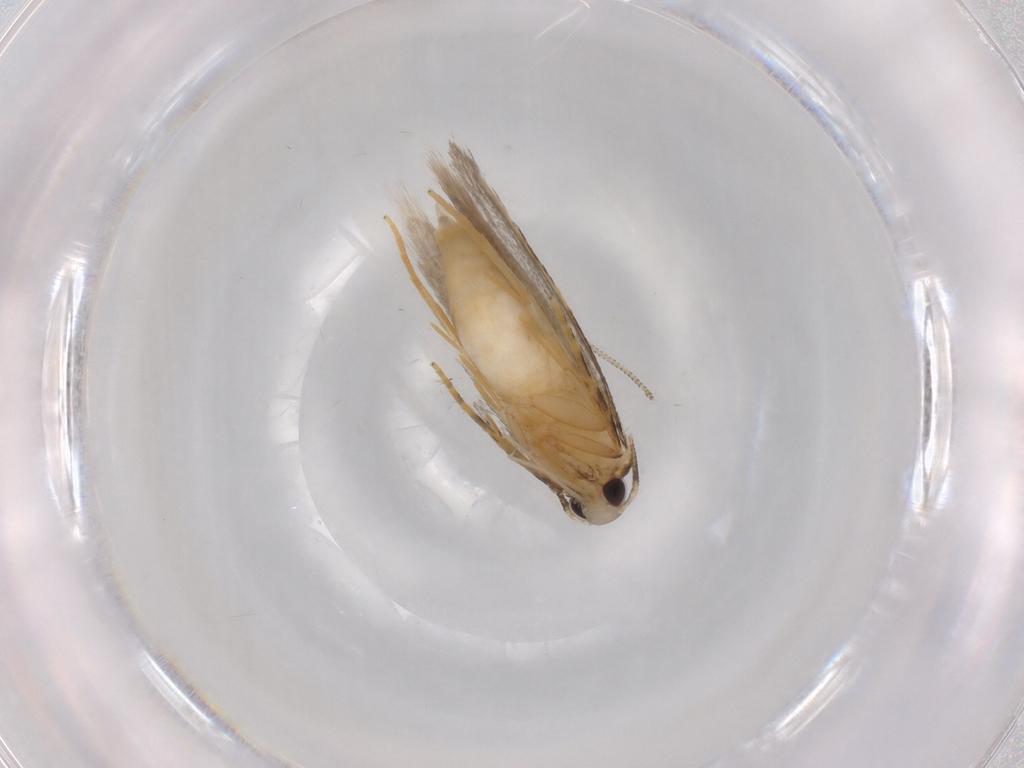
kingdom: Animalia
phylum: Arthropoda
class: Insecta
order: Lepidoptera
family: Autostichidae
